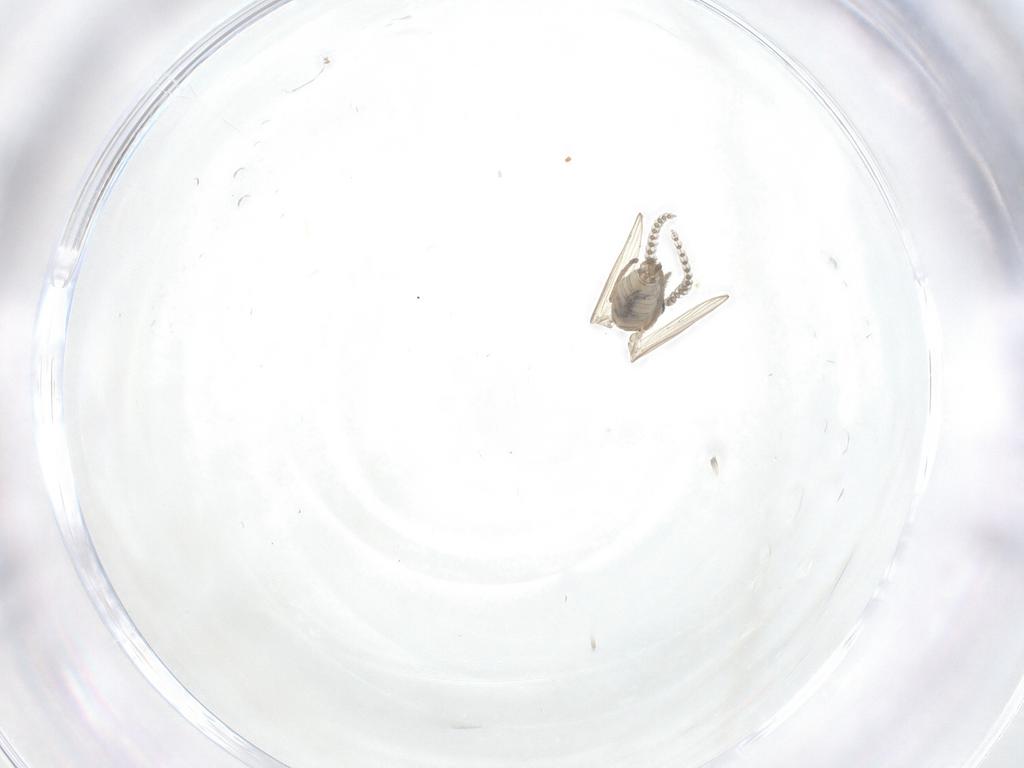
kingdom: Animalia
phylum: Arthropoda
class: Insecta
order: Diptera
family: Psychodidae
